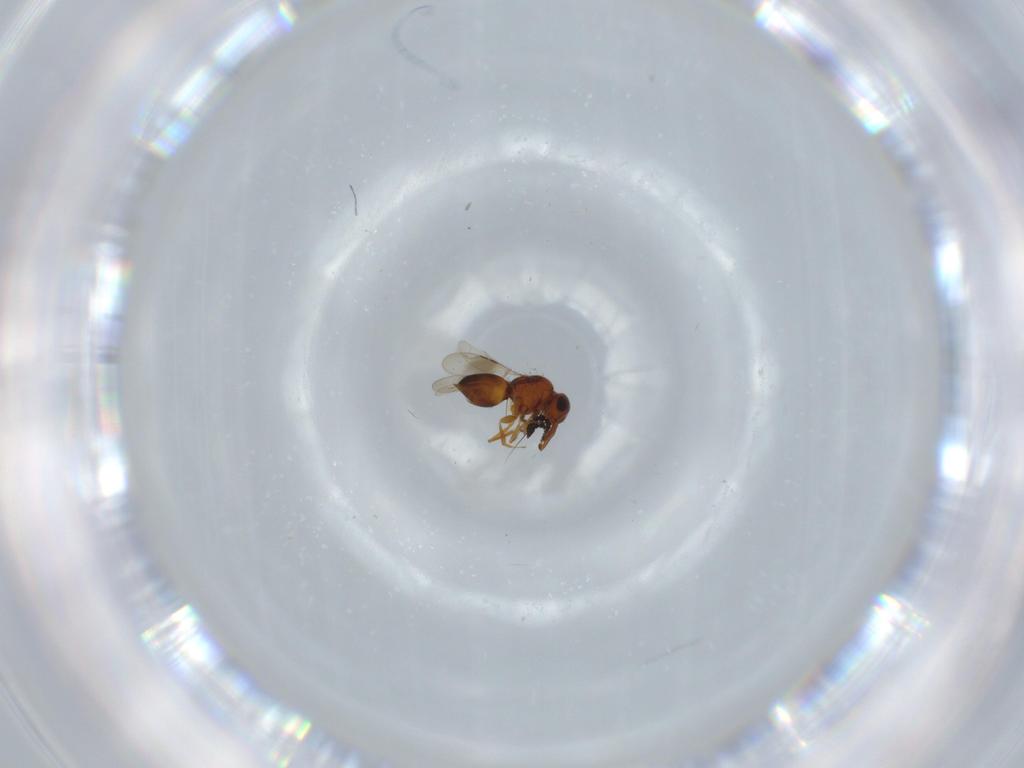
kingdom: Animalia
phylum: Arthropoda
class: Insecta
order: Hymenoptera
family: Ceraphronidae
